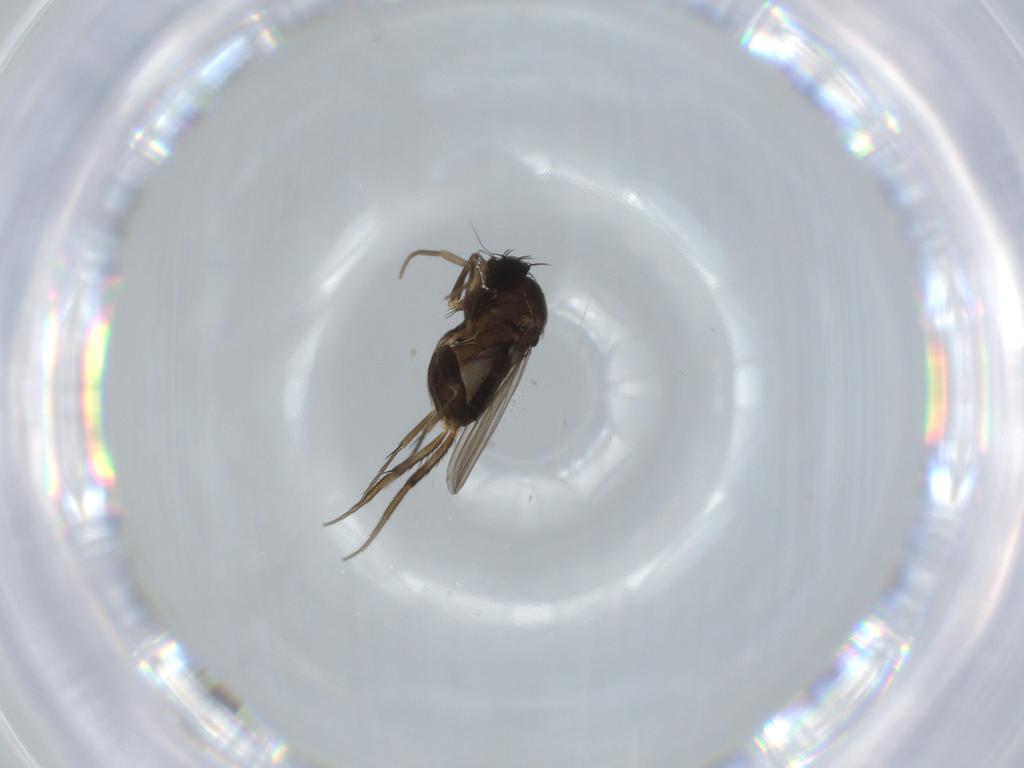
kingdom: Animalia
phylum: Arthropoda
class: Insecta
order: Diptera
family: Phoridae
